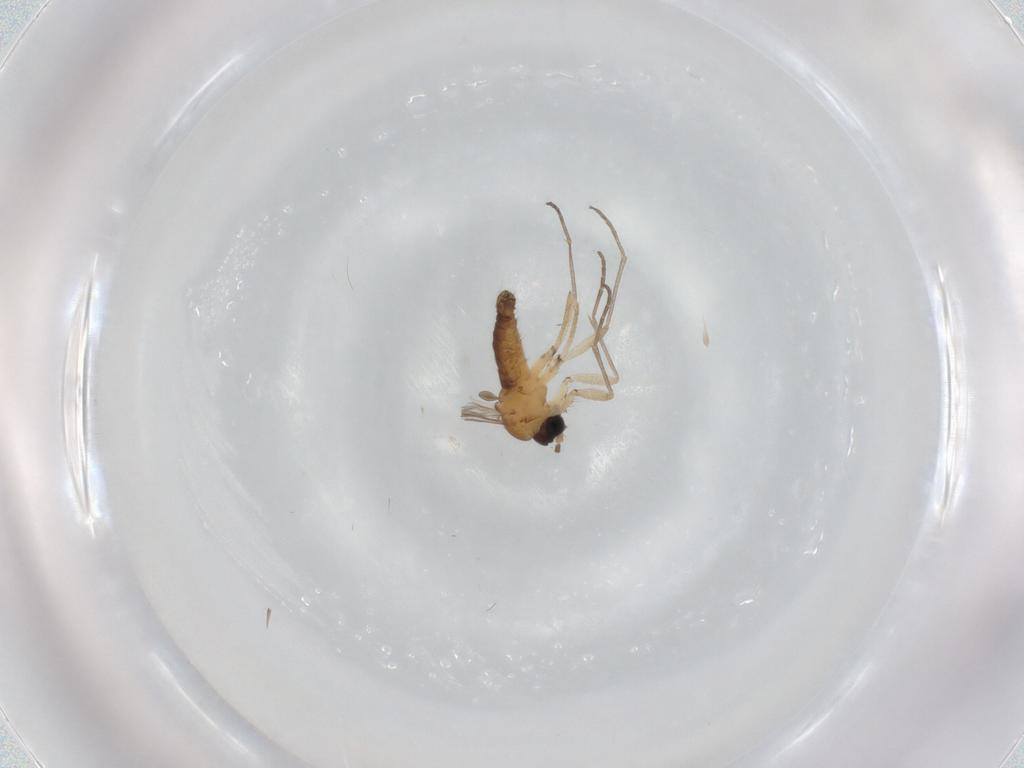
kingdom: Animalia
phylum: Arthropoda
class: Insecta
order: Diptera
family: Sciaridae
